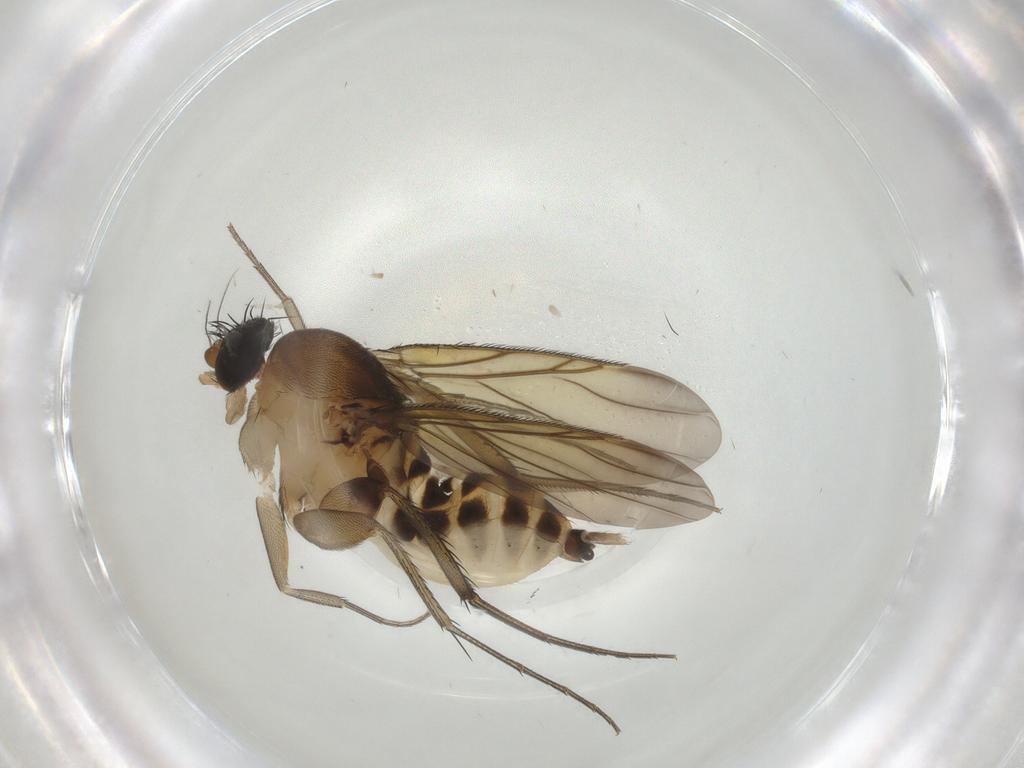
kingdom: Animalia
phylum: Arthropoda
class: Insecta
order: Diptera
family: Phoridae
